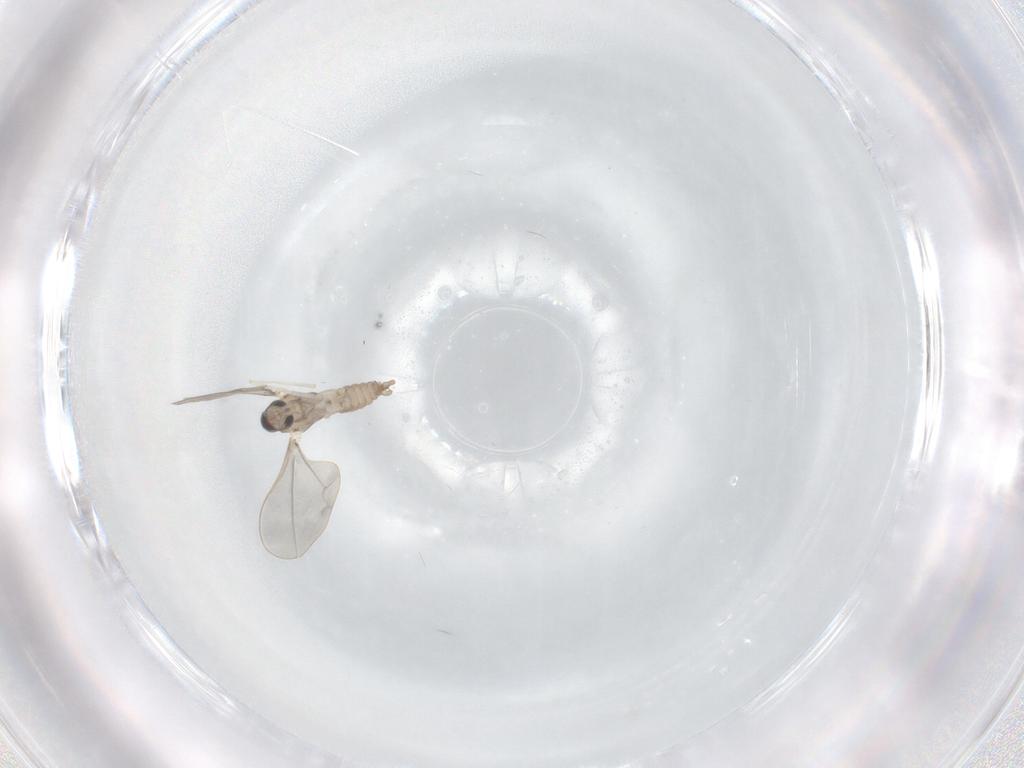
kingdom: Animalia
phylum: Arthropoda
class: Insecta
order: Diptera
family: Cecidomyiidae
